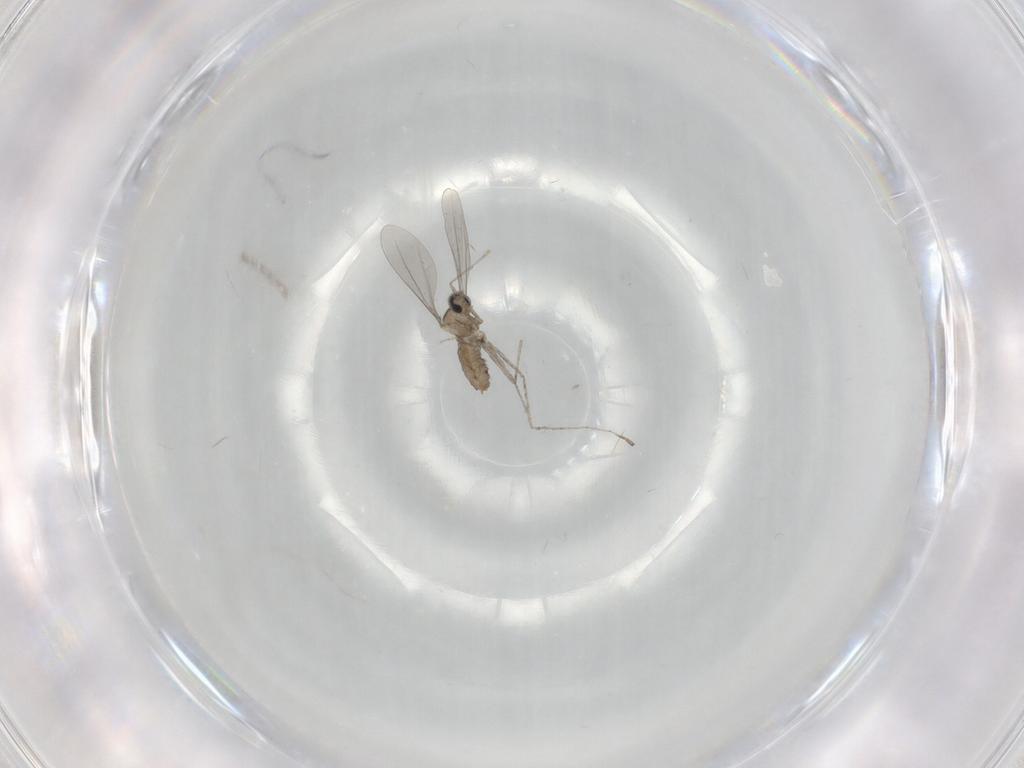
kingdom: Animalia
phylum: Arthropoda
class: Insecta
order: Diptera
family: Cecidomyiidae
